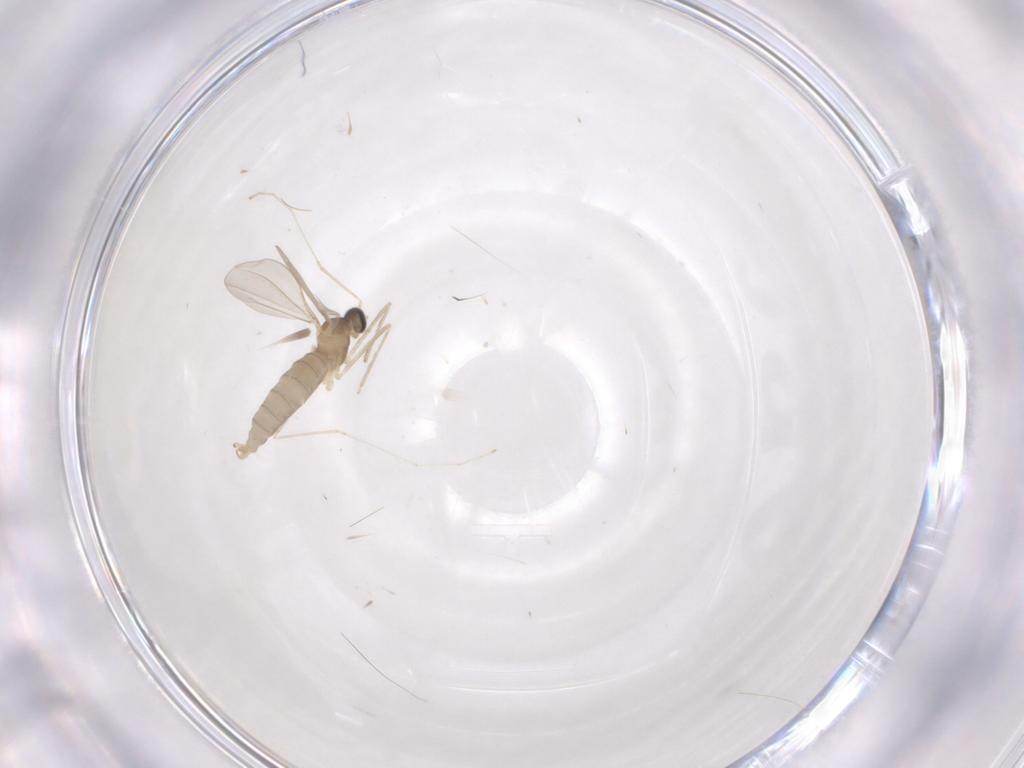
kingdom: Animalia
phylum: Arthropoda
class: Insecta
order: Diptera
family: Cecidomyiidae
